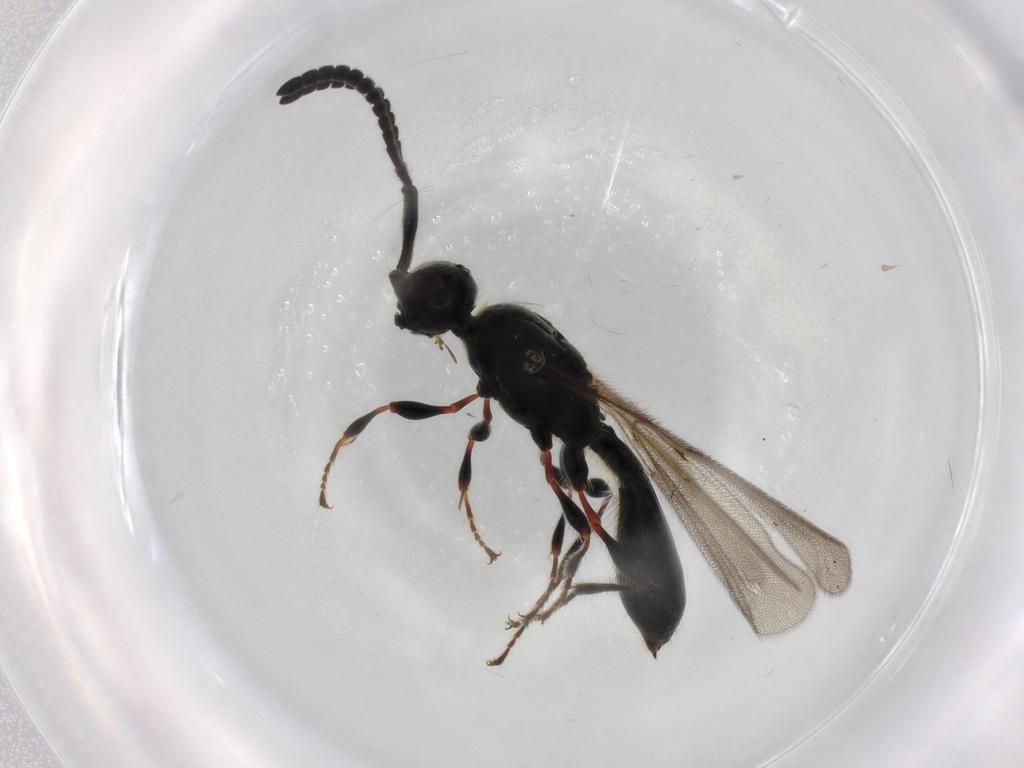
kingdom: Animalia
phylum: Arthropoda
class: Insecta
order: Hymenoptera
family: Diapriidae
